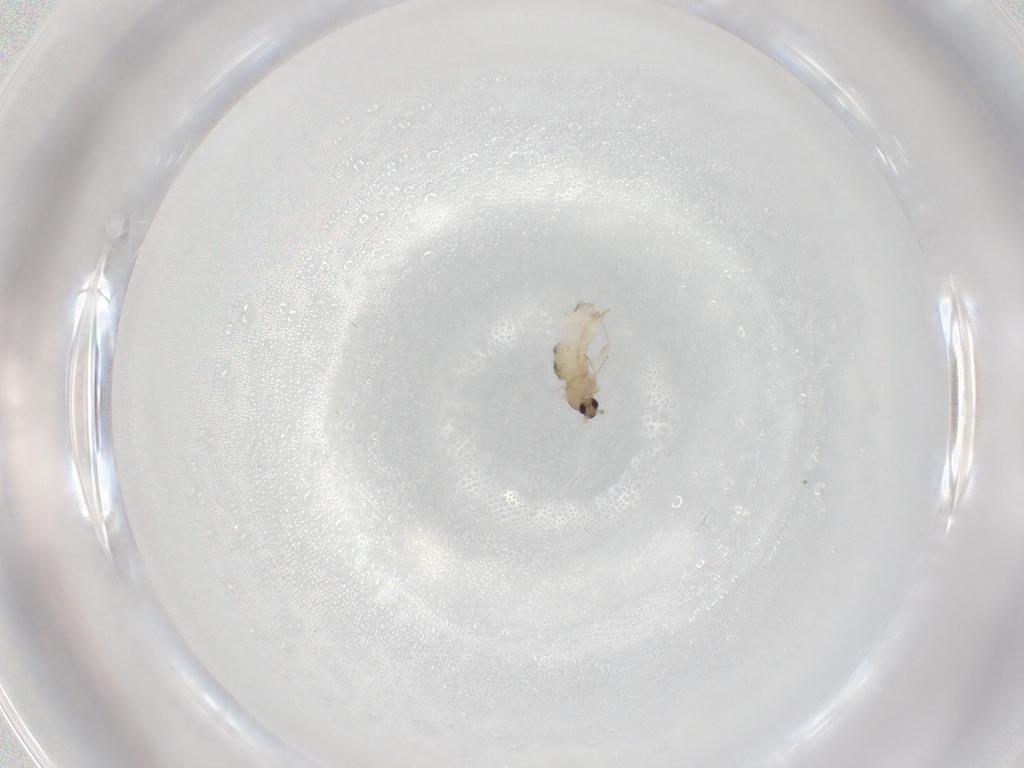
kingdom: Animalia
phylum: Arthropoda
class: Insecta
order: Diptera
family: Cecidomyiidae
